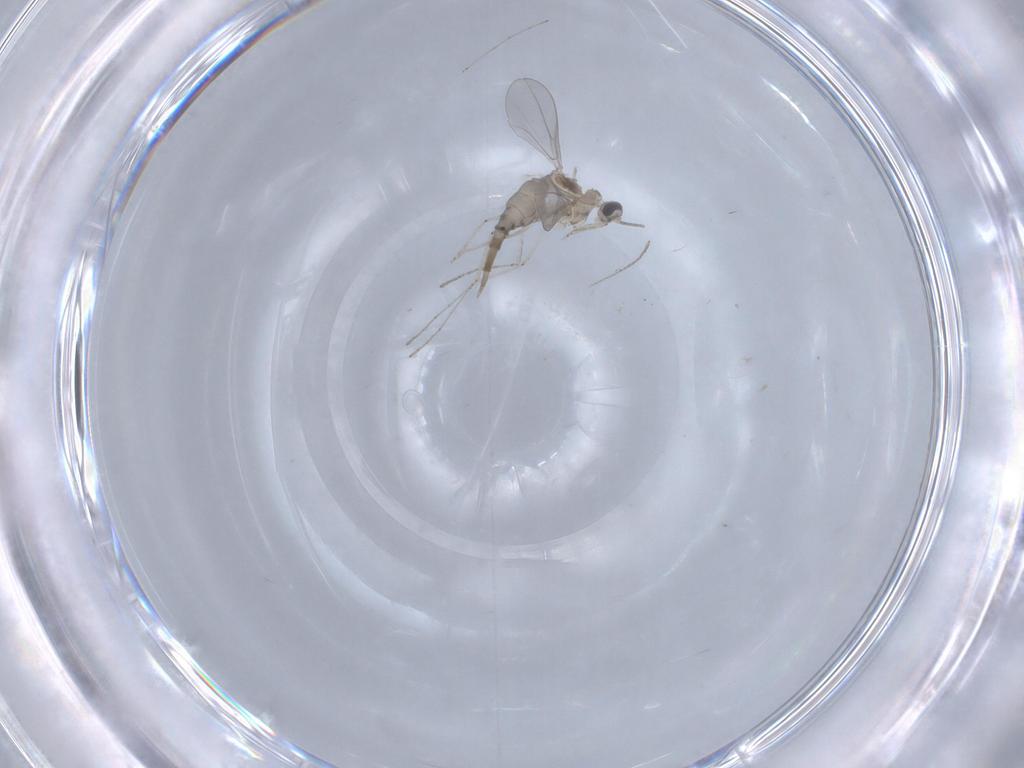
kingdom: Animalia
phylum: Arthropoda
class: Insecta
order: Diptera
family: Cecidomyiidae
